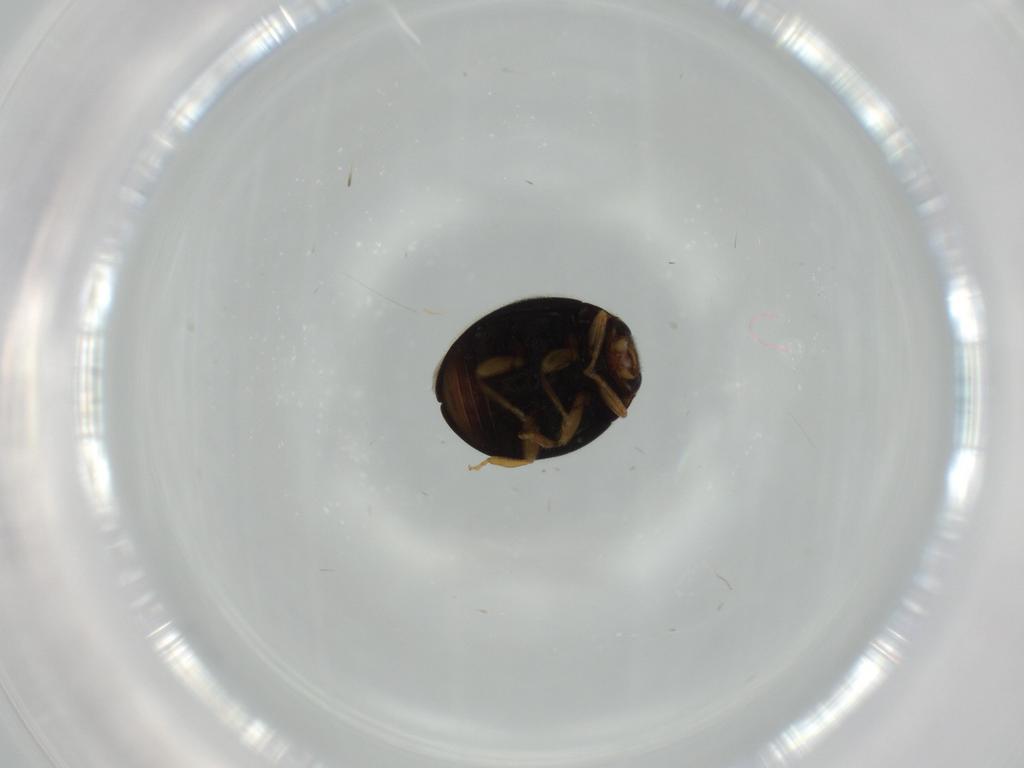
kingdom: Animalia
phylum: Arthropoda
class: Insecta
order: Coleoptera
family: Coccinellidae
